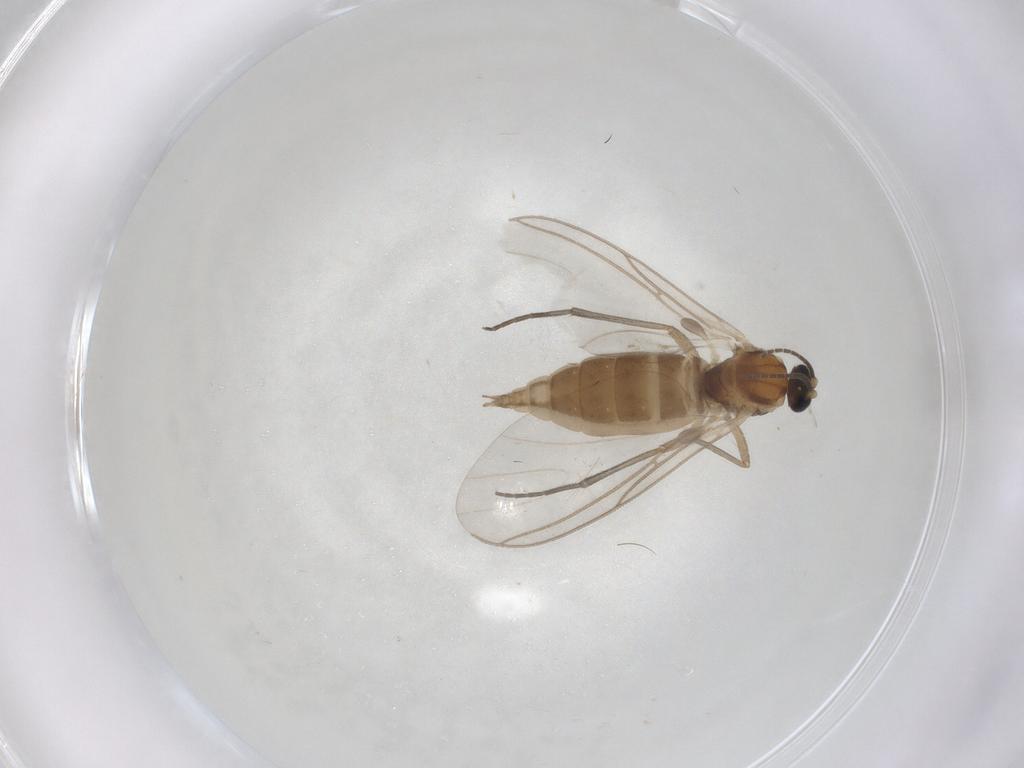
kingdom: Animalia
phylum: Arthropoda
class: Insecta
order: Diptera
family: Sciaridae
